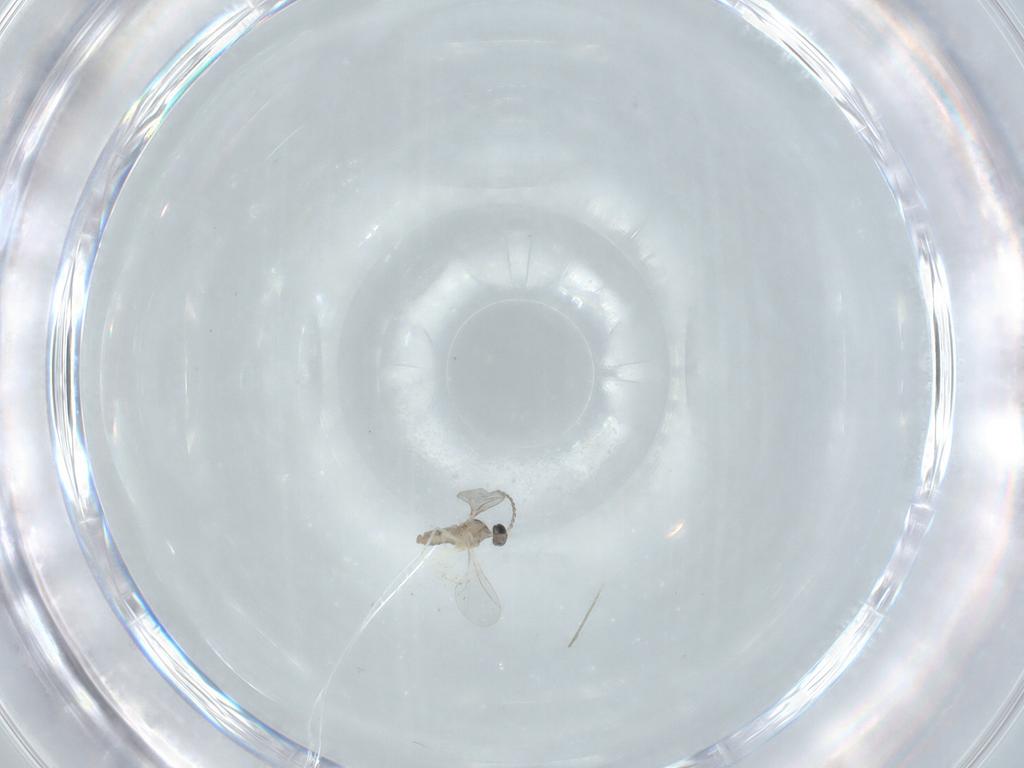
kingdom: Animalia
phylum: Arthropoda
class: Insecta
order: Diptera
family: Cecidomyiidae
